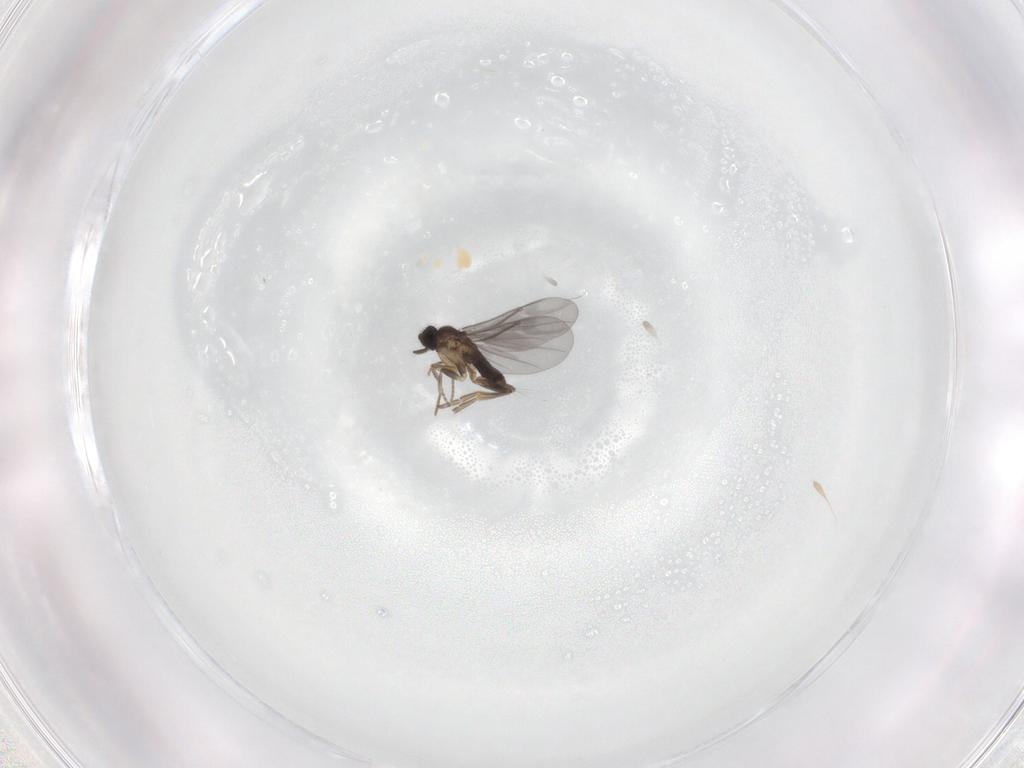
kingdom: Animalia
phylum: Arthropoda
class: Insecta
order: Diptera
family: Cecidomyiidae
